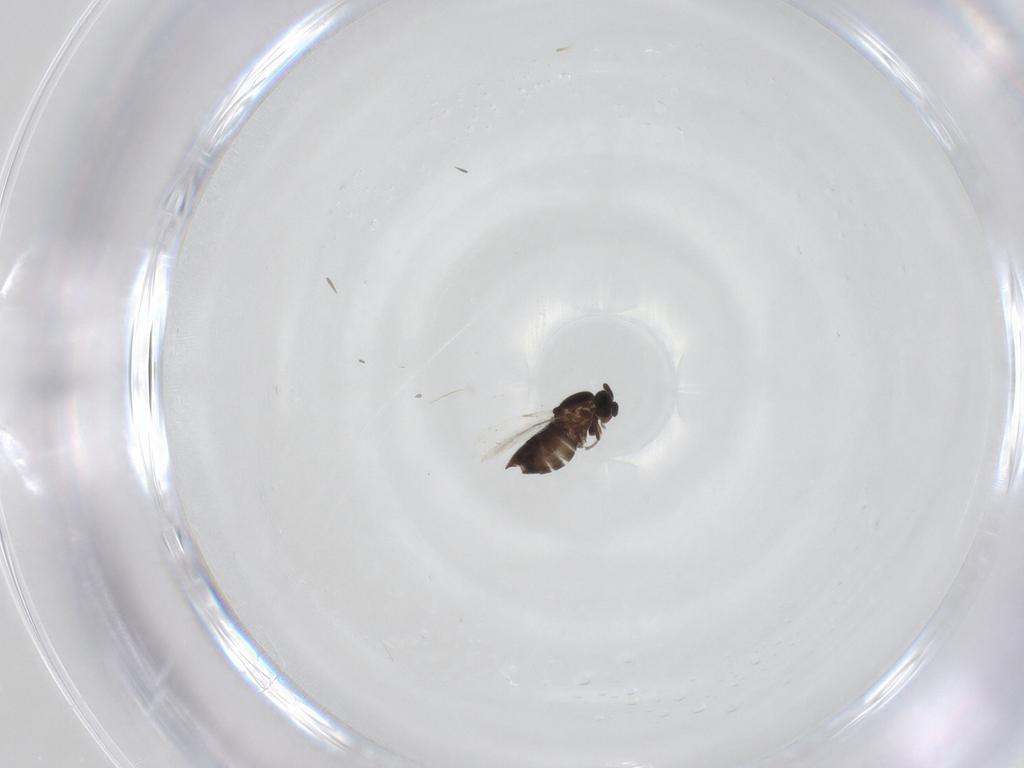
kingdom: Animalia
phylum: Arthropoda
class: Insecta
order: Diptera
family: Scatopsidae
